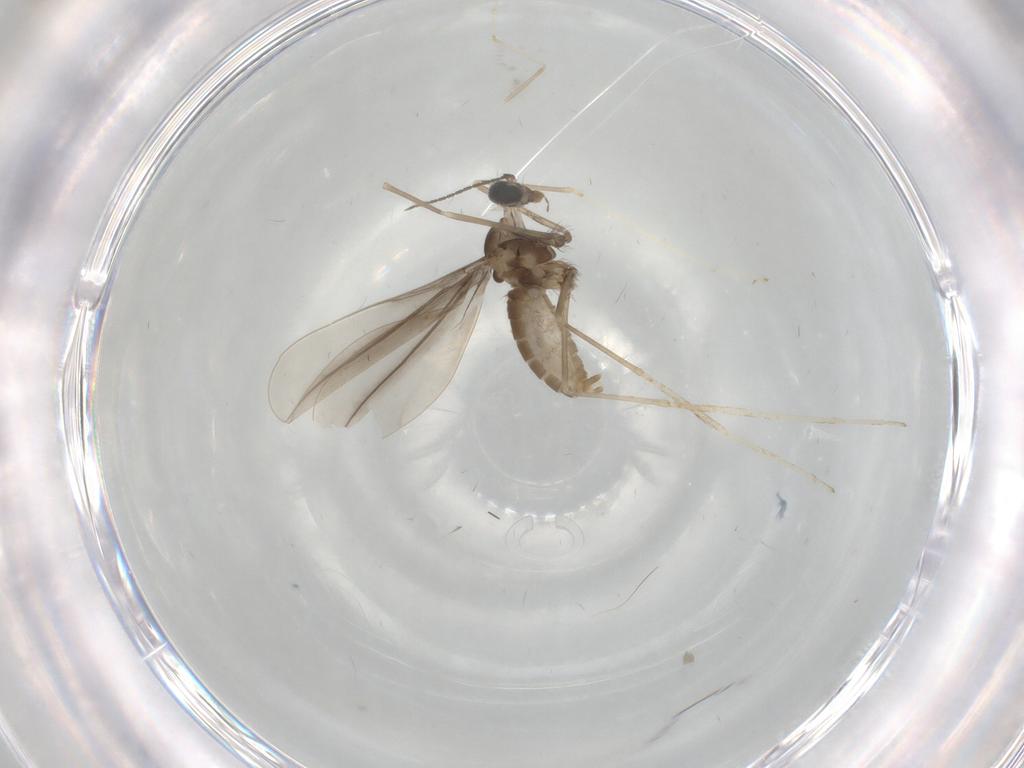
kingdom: Animalia
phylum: Arthropoda
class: Insecta
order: Diptera
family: Cecidomyiidae
